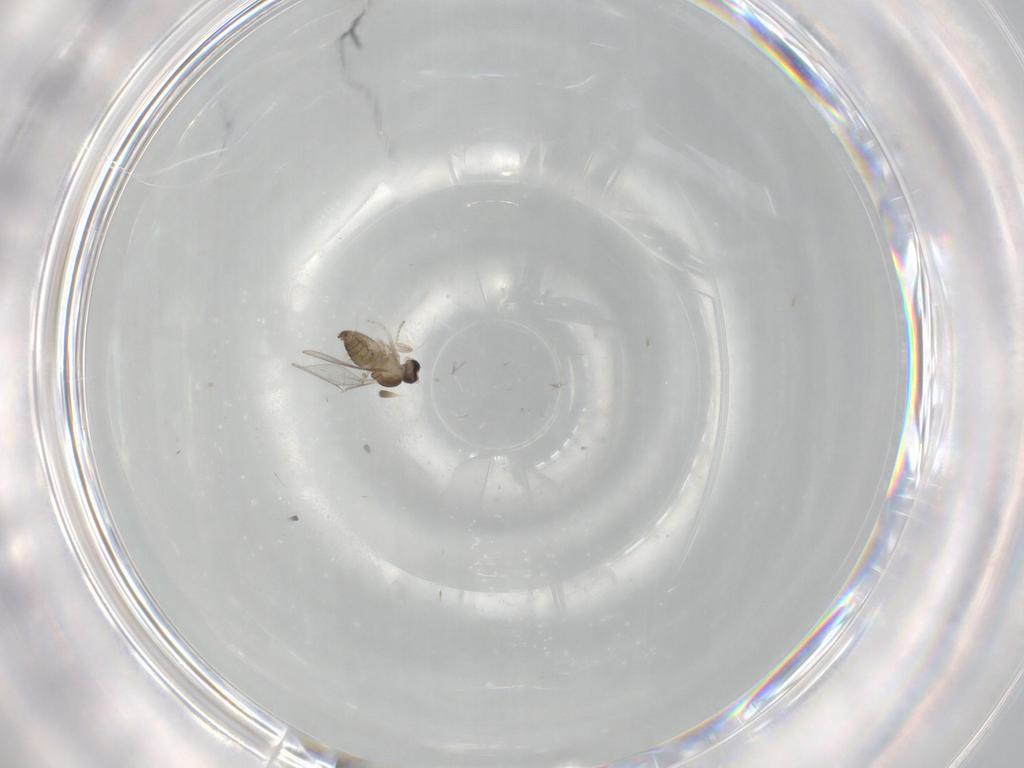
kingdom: Animalia
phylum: Arthropoda
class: Insecta
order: Diptera
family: Cecidomyiidae
